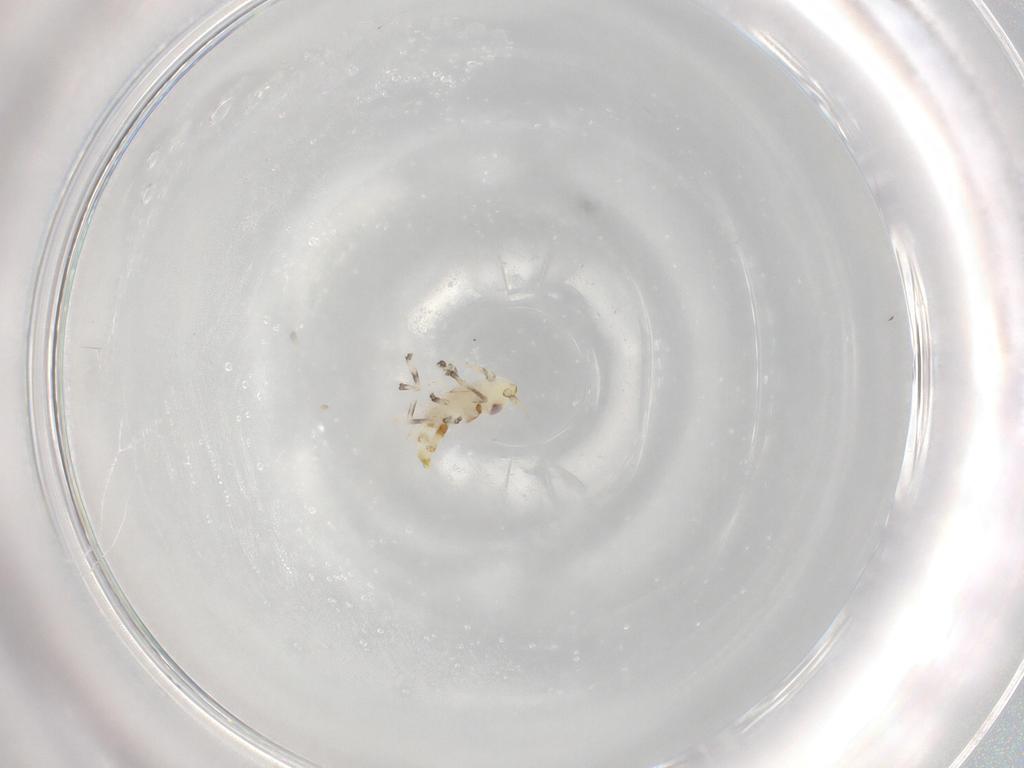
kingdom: Animalia
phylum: Arthropoda
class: Insecta
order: Hemiptera
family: Cicadellidae
